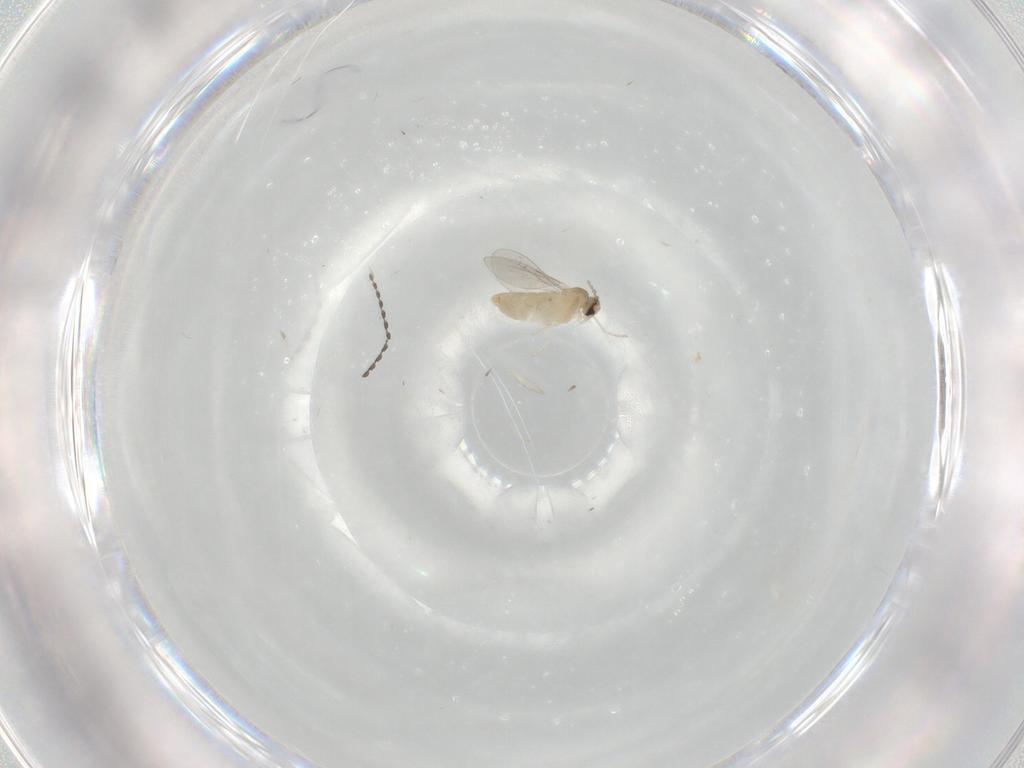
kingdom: Animalia
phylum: Arthropoda
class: Insecta
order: Diptera
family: Cecidomyiidae
